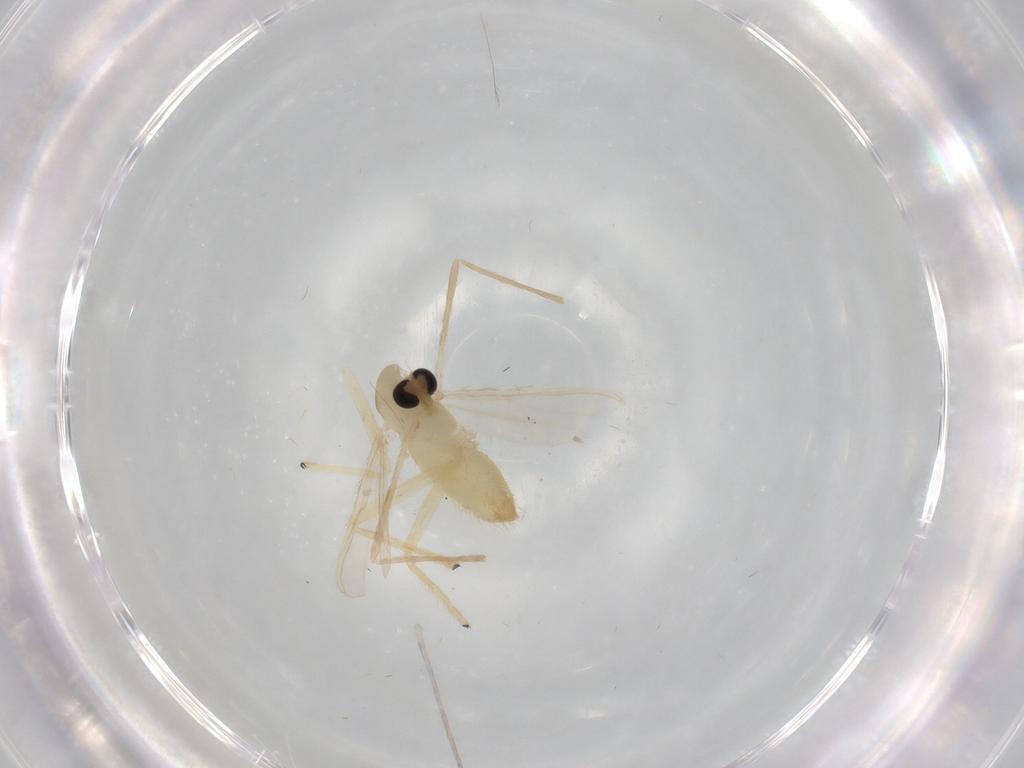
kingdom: Animalia
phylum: Arthropoda
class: Insecta
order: Diptera
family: Chironomidae
